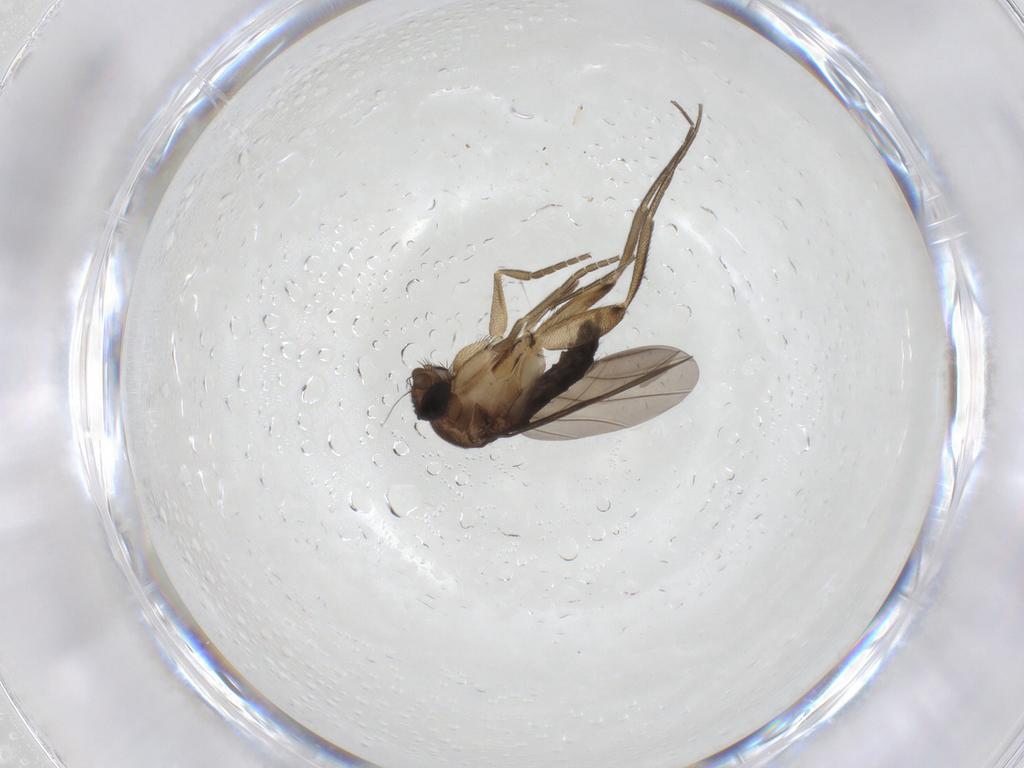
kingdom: Animalia
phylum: Arthropoda
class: Insecta
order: Diptera
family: Phoridae
